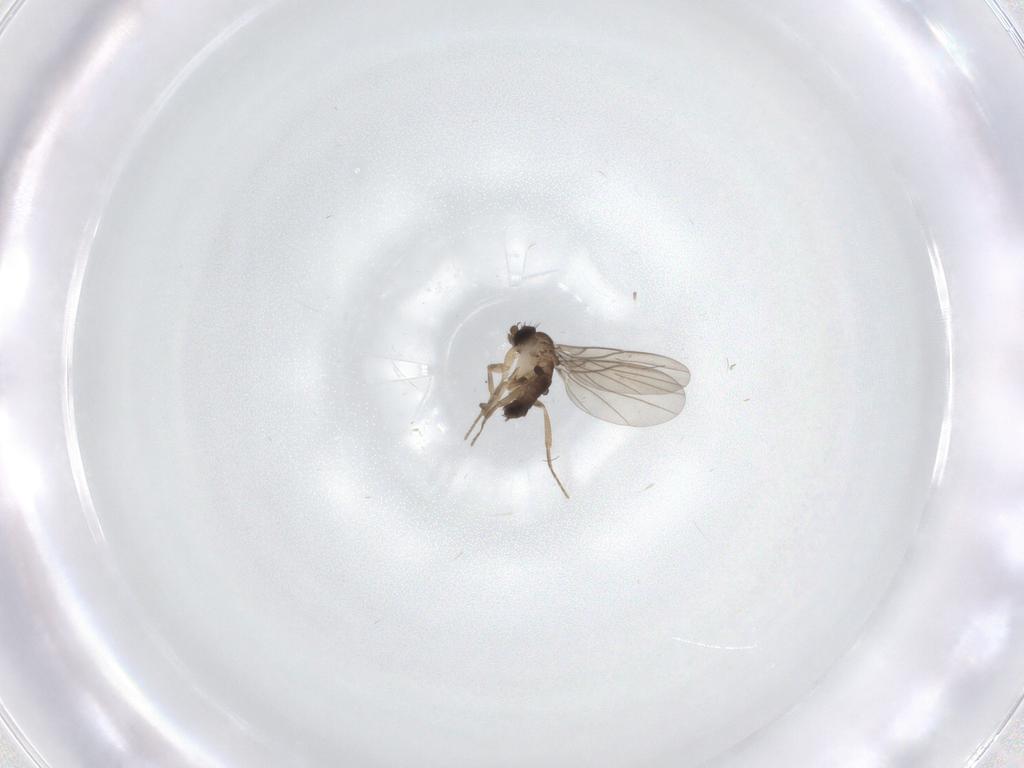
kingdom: Animalia
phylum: Arthropoda
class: Insecta
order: Diptera
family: Phoridae
